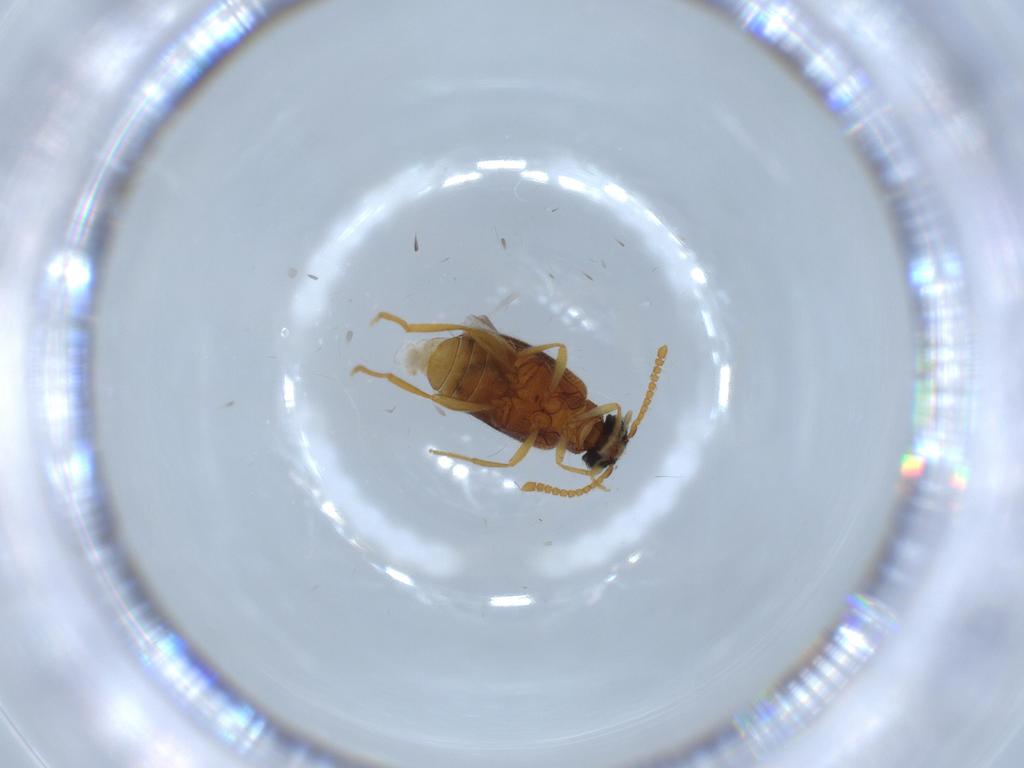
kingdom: Animalia
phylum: Arthropoda
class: Insecta
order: Coleoptera
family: Aderidae
